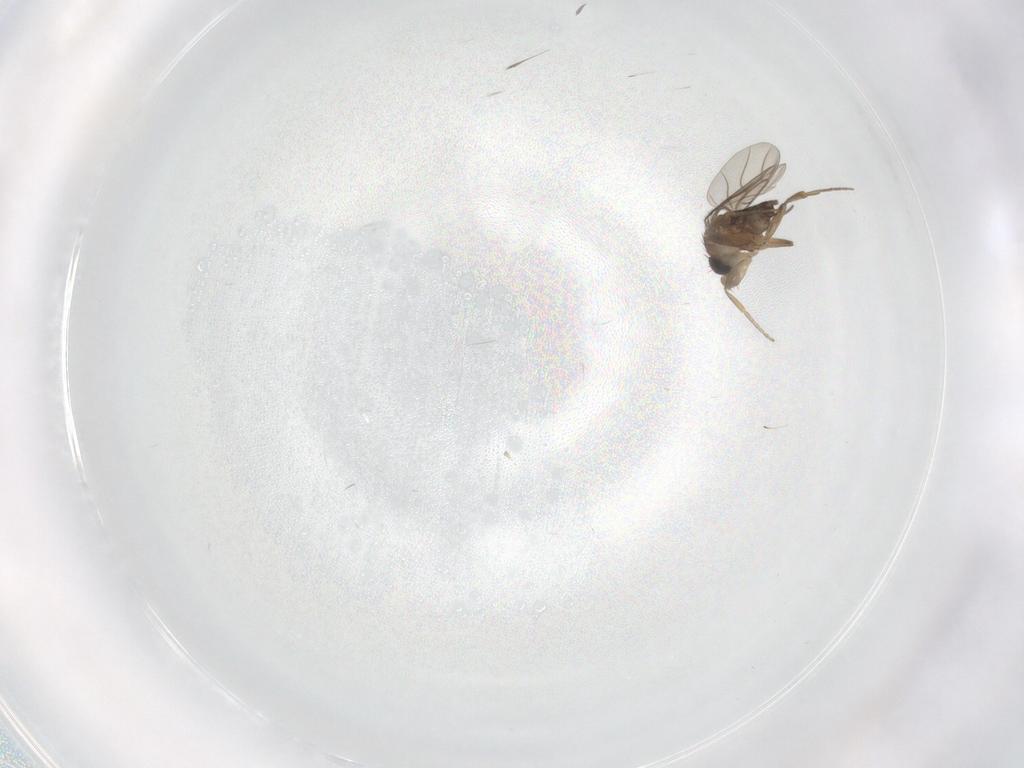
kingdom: Animalia
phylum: Arthropoda
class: Insecta
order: Diptera
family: Phoridae
